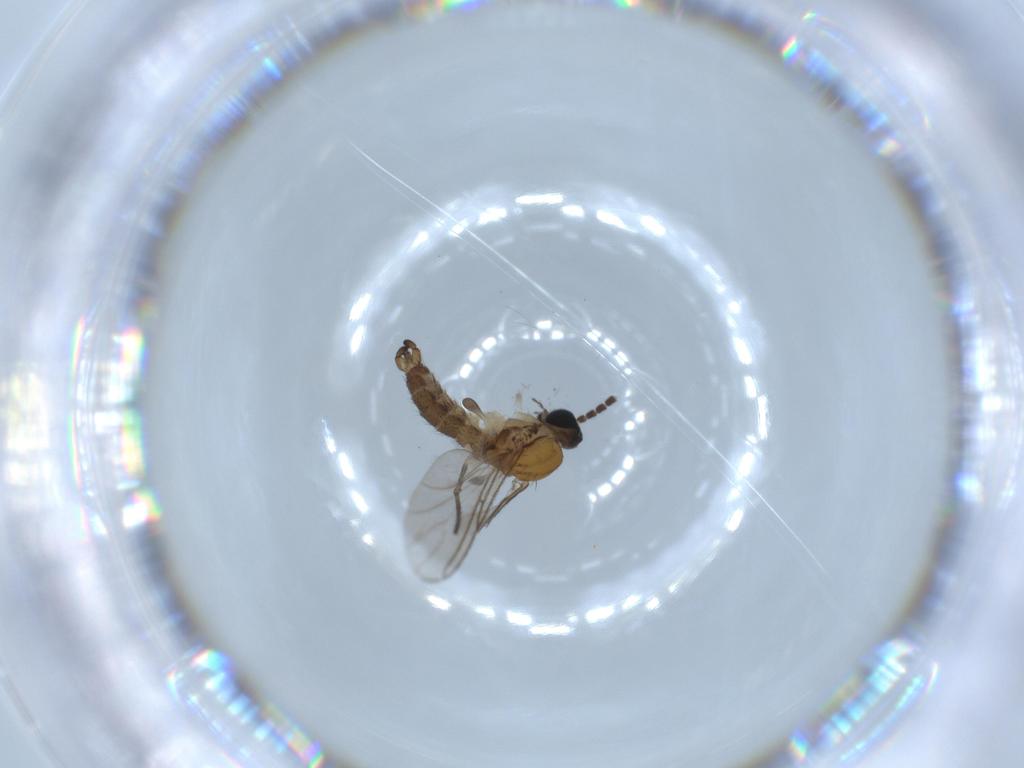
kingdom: Animalia
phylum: Arthropoda
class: Insecta
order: Diptera
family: Sciaridae
